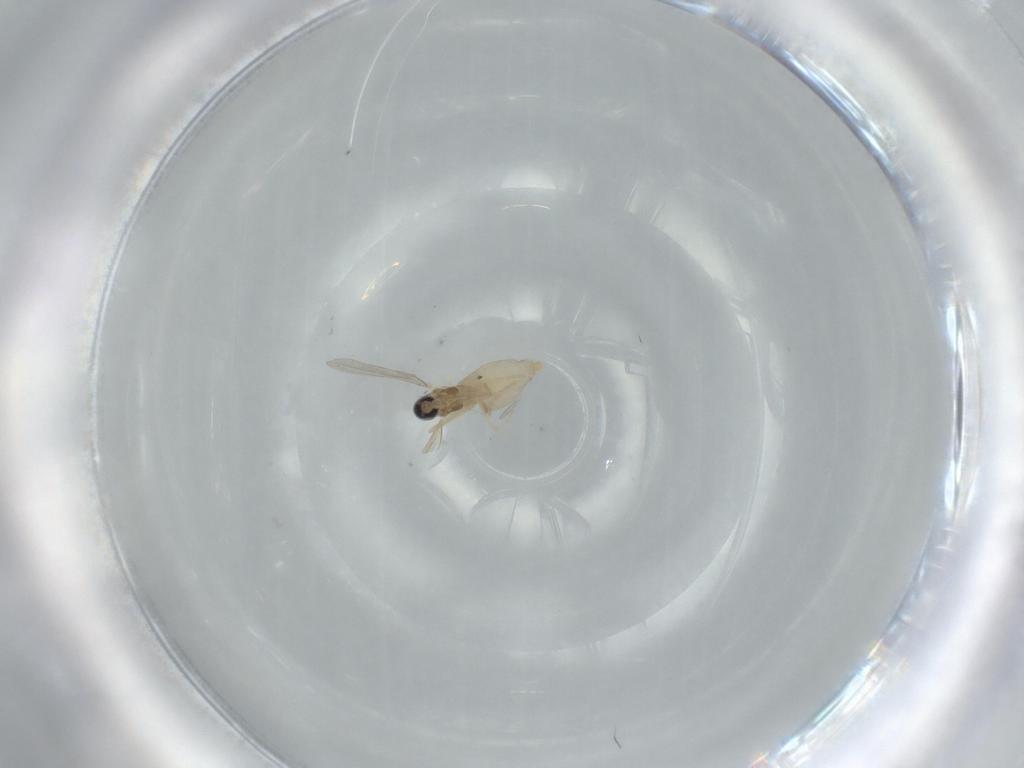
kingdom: Animalia
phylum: Arthropoda
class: Insecta
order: Diptera
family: Cecidomyiidae
